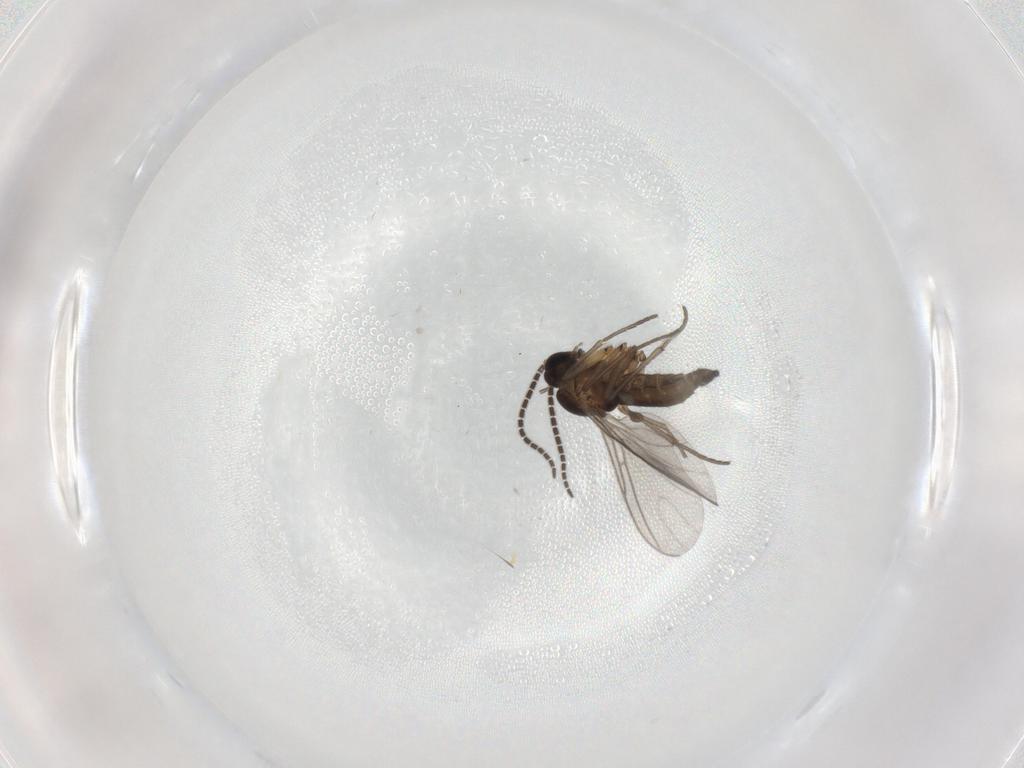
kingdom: Animalia
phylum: Arthropoda
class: Insecta
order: Diptera
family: Sciaridae
